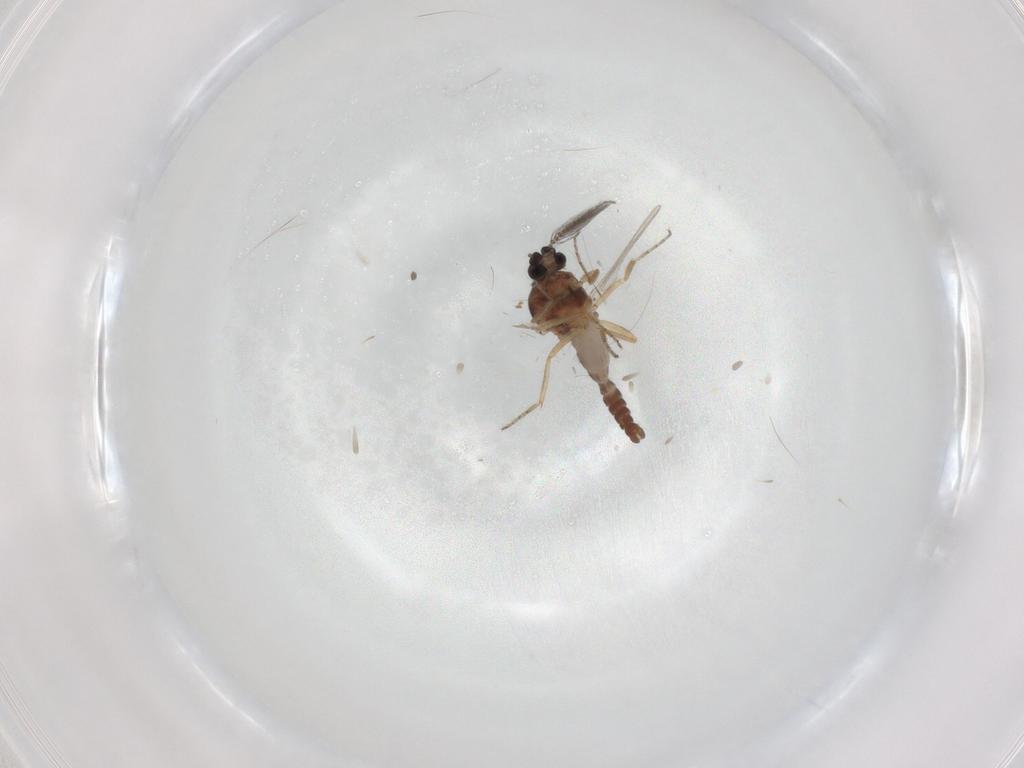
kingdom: Animalia
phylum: Arthropoda
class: Insecta
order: Diptera
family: Ceratopogonidae
